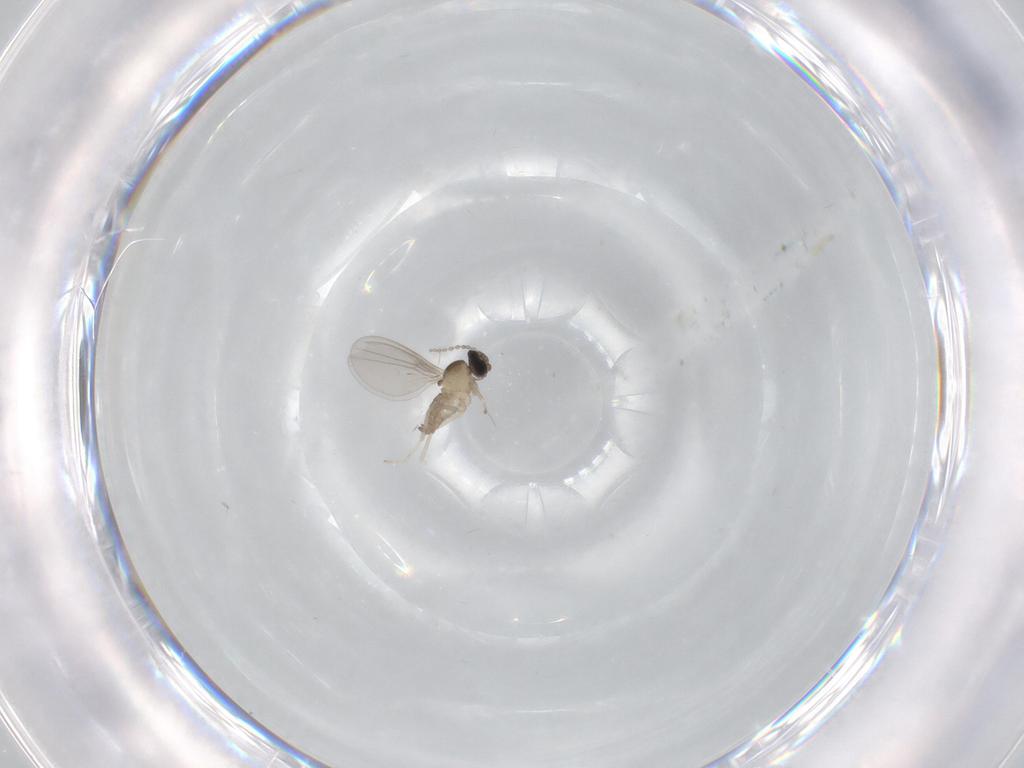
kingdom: Animalia
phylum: Arthropoda
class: Insecta
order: Diptera
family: Cecidomyiidae
